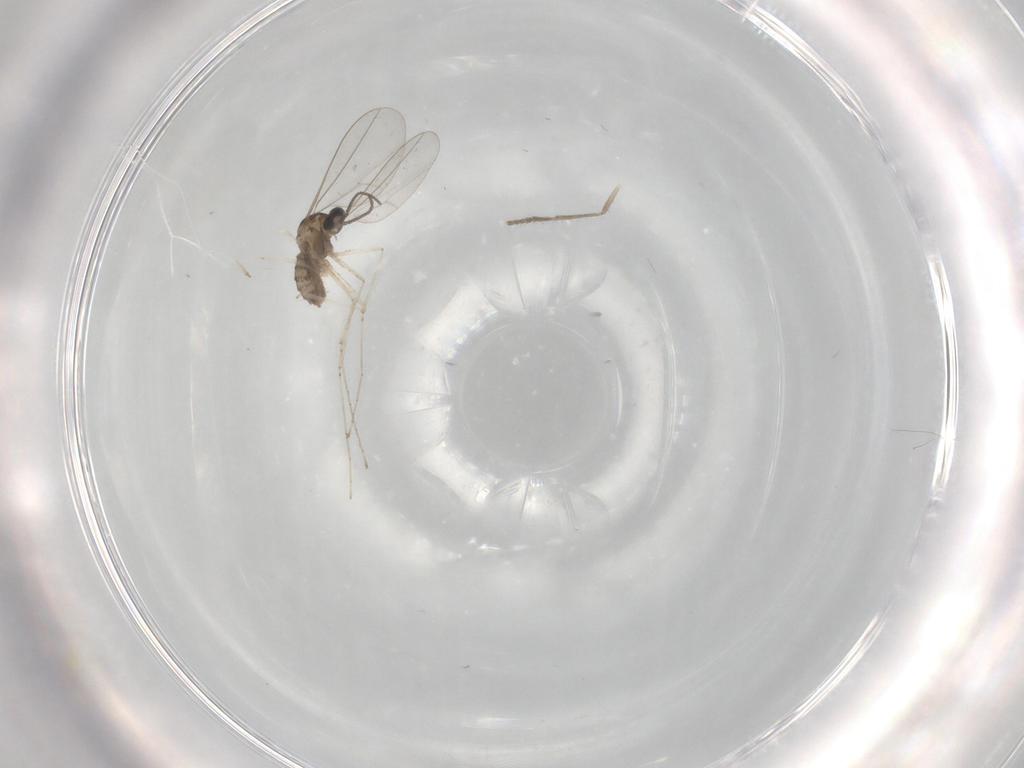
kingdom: Animalia
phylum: Arthropoda
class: Insecta
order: Diptera
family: Cecidomyiidae
